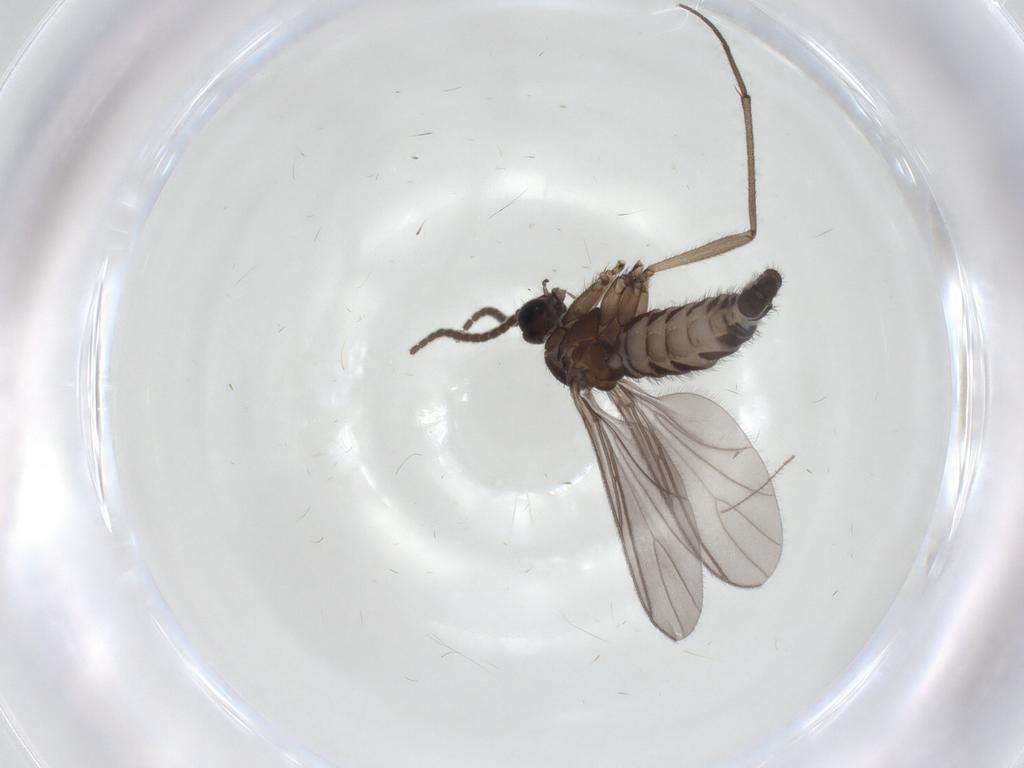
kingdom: Animalia
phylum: Arthropoda
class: Insecta
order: Diptera
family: Sciaridae
